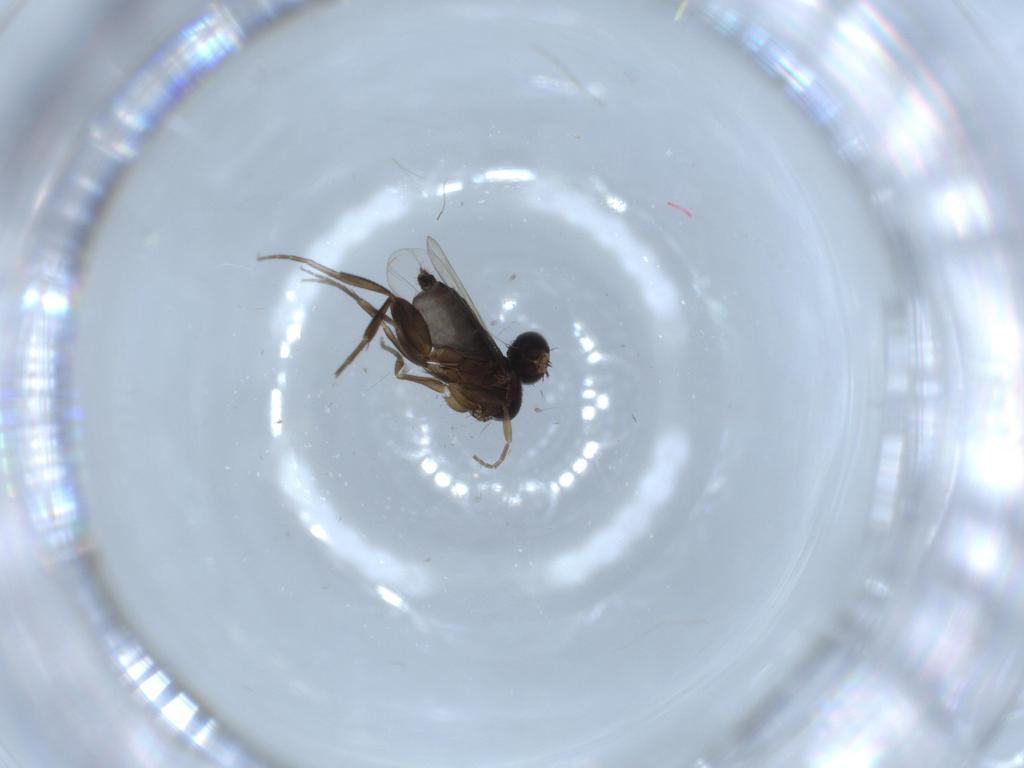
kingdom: Animalia
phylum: Arthropoda
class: Insecta
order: Diptera
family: Phoridae
